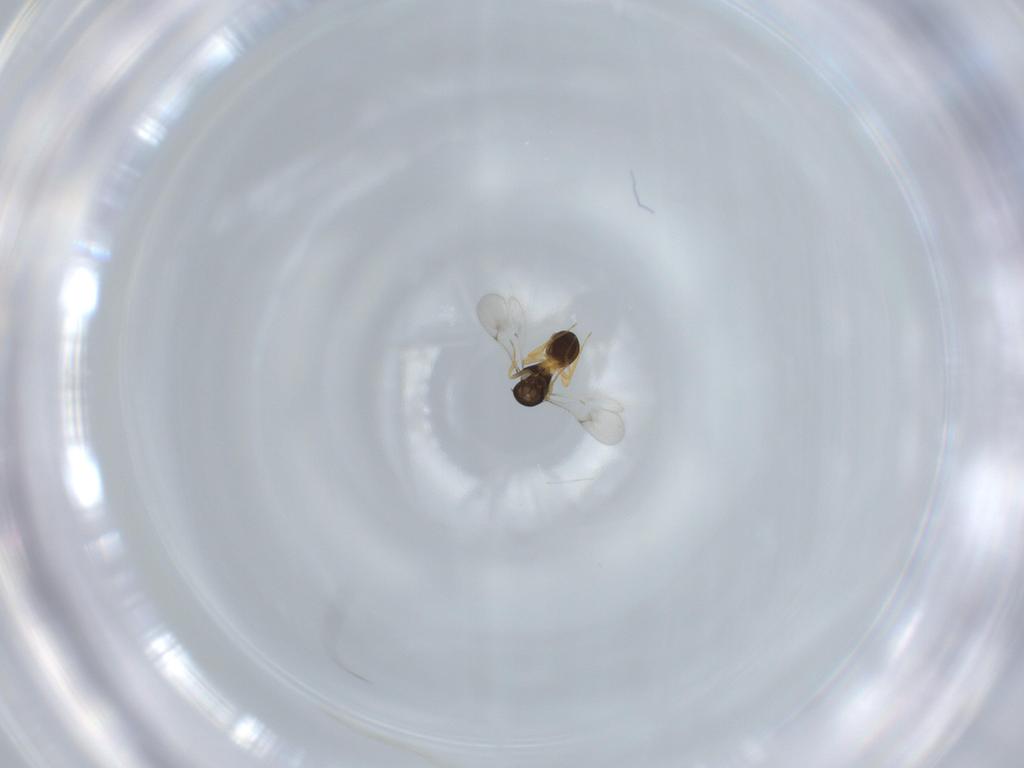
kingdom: Animalia
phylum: Arthropoda
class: Insecta
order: Hymenoptera
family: Scelionidae
